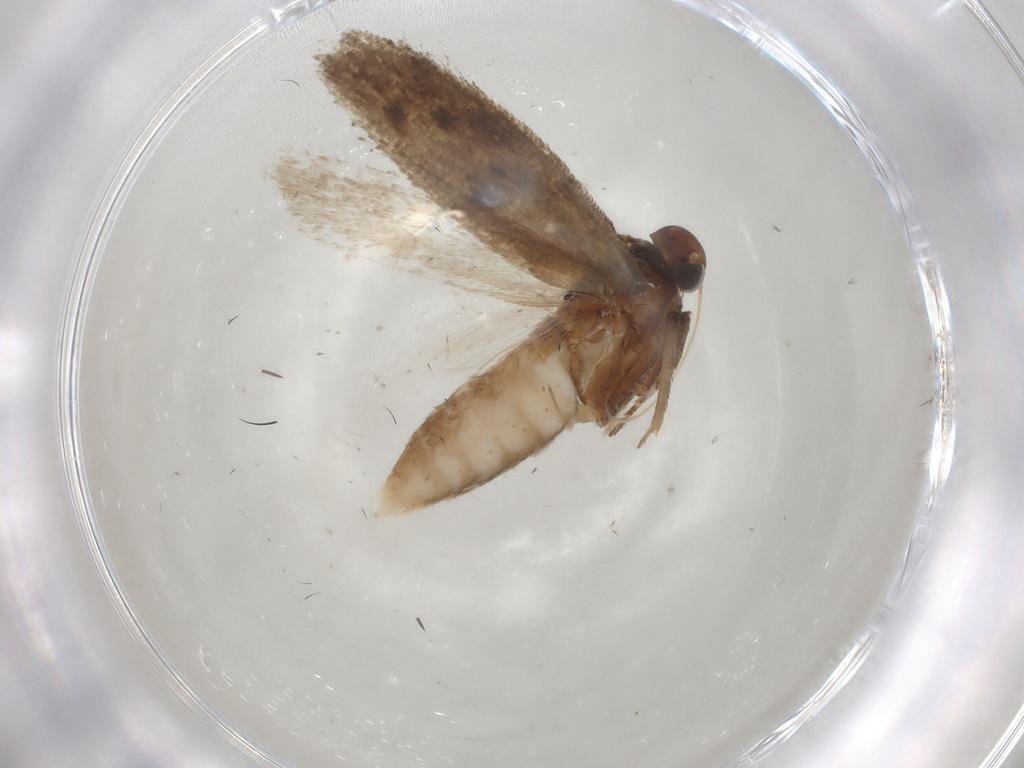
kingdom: Animalia
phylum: Arthropoda
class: Insecta
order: Lepidoptera
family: Gelechiidae
